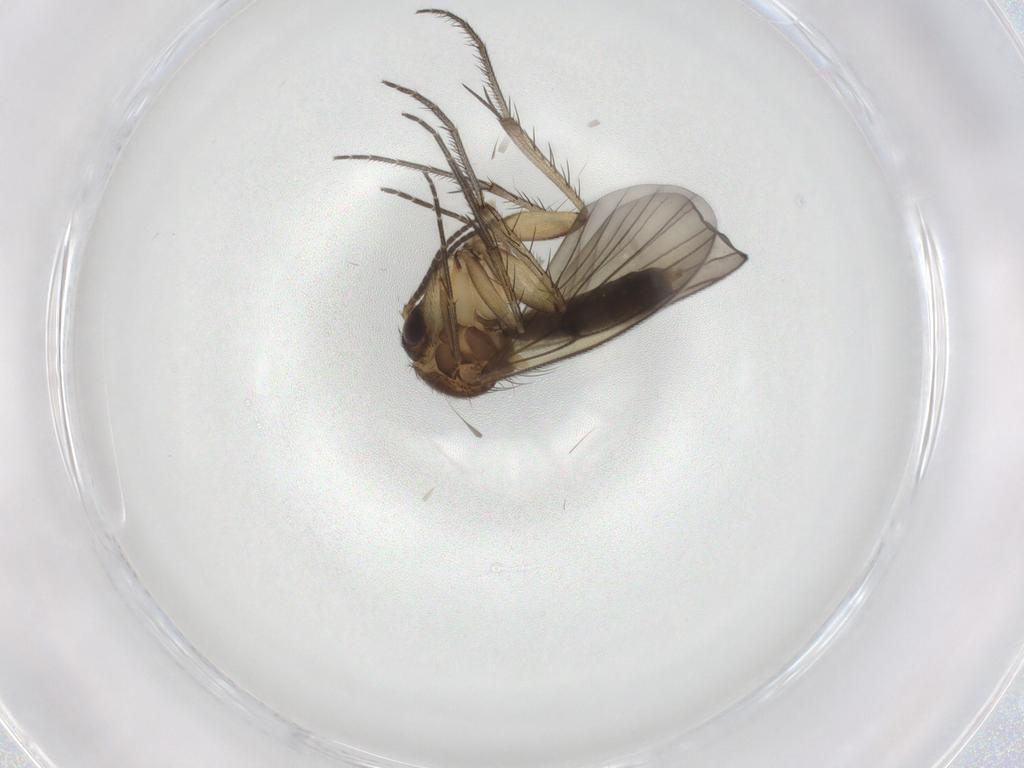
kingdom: Animalia
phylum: Arthropoda
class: Insecta
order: Diptera
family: Mycetophilidae
